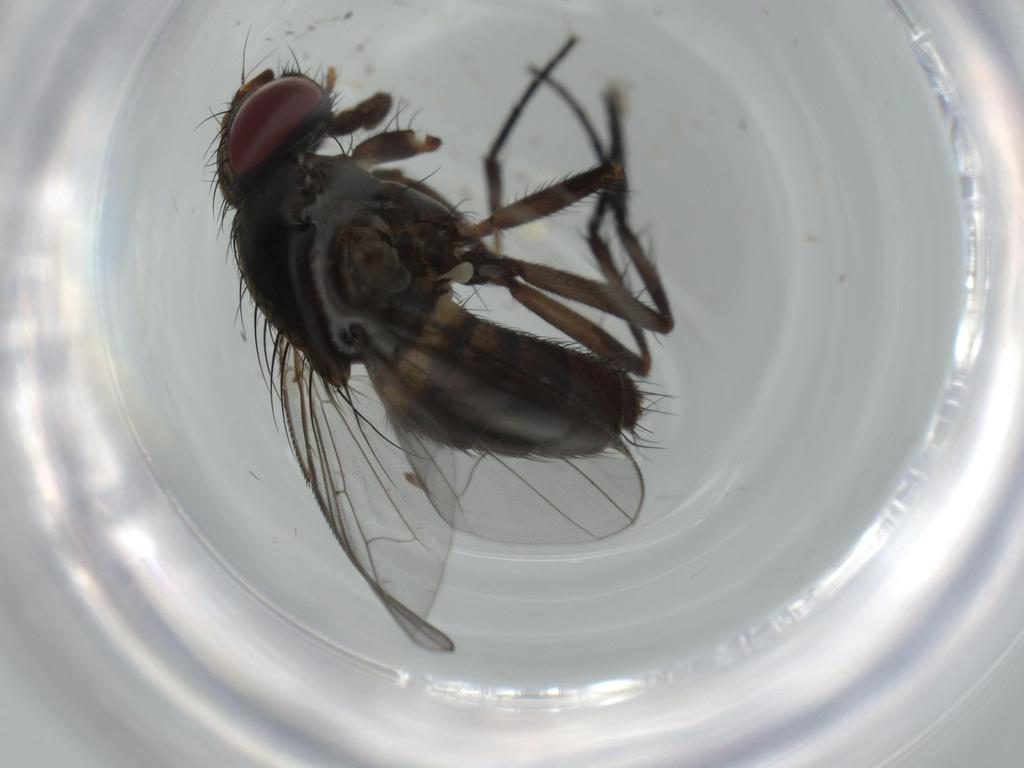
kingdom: Animalia
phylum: Arthropoda
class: Insecta
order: Diptera
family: Fannia
